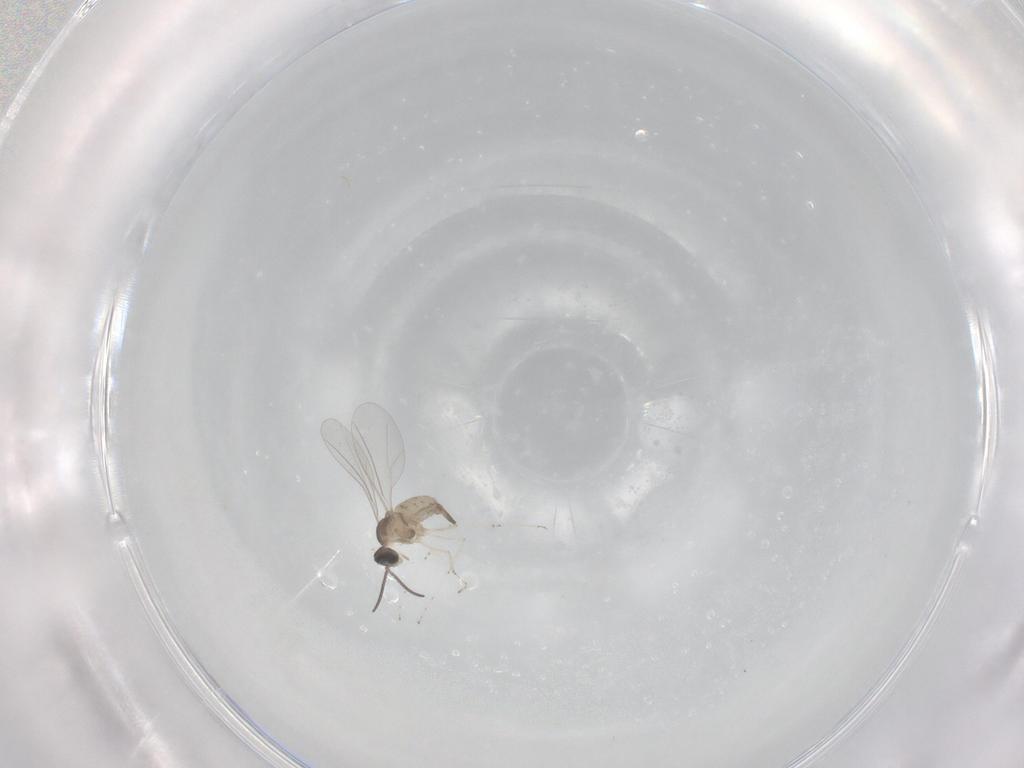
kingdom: Animalia
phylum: Arthropoda
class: Insecta
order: Diptera
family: Cecidomyiidae
